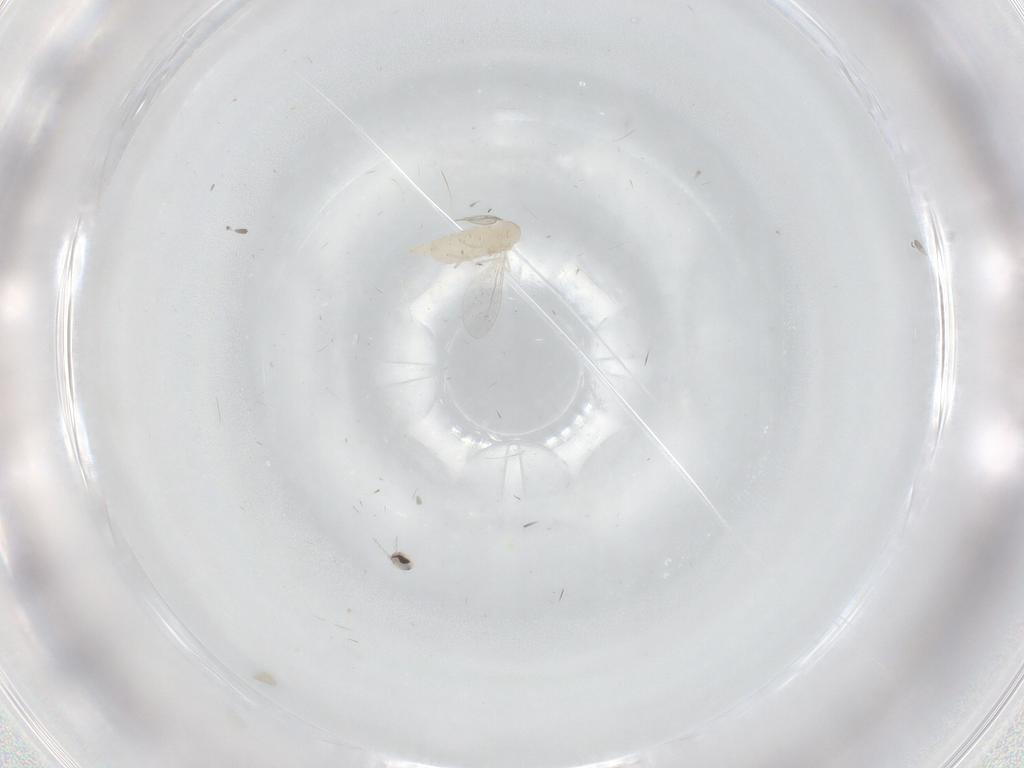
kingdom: Animalia
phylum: Arthropoda
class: Insecta
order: Diptera
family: Cecidomyiidae
